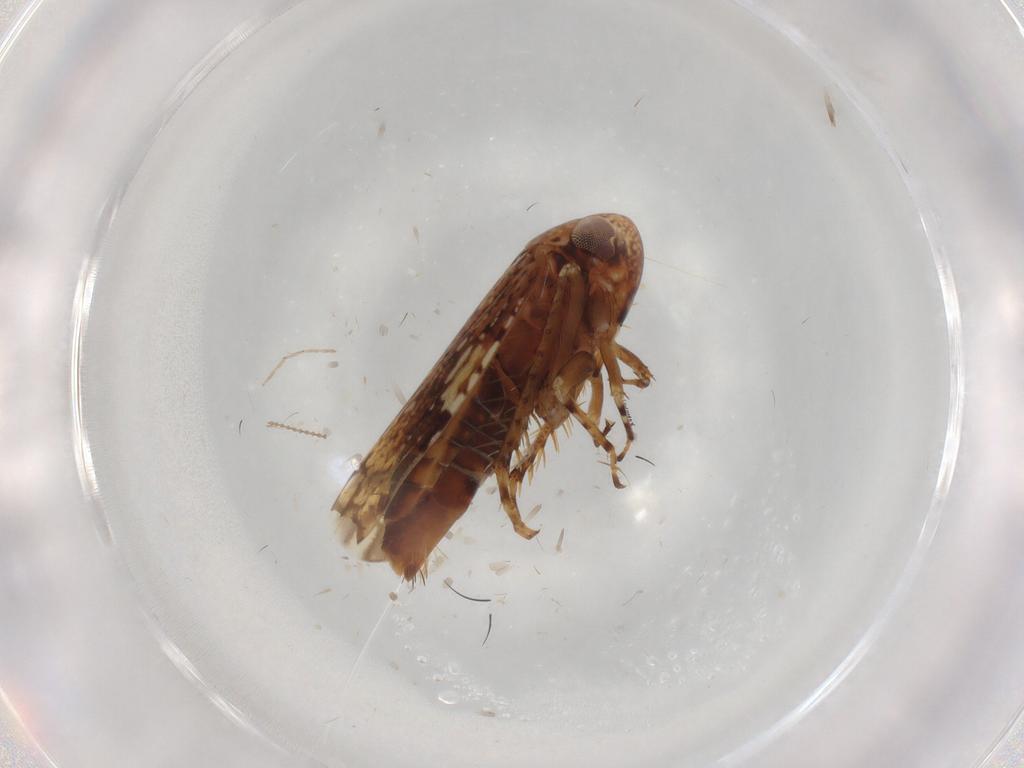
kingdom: Animalia
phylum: Arthropoda
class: Insecta
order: Hemiptera
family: Cicadellidae
